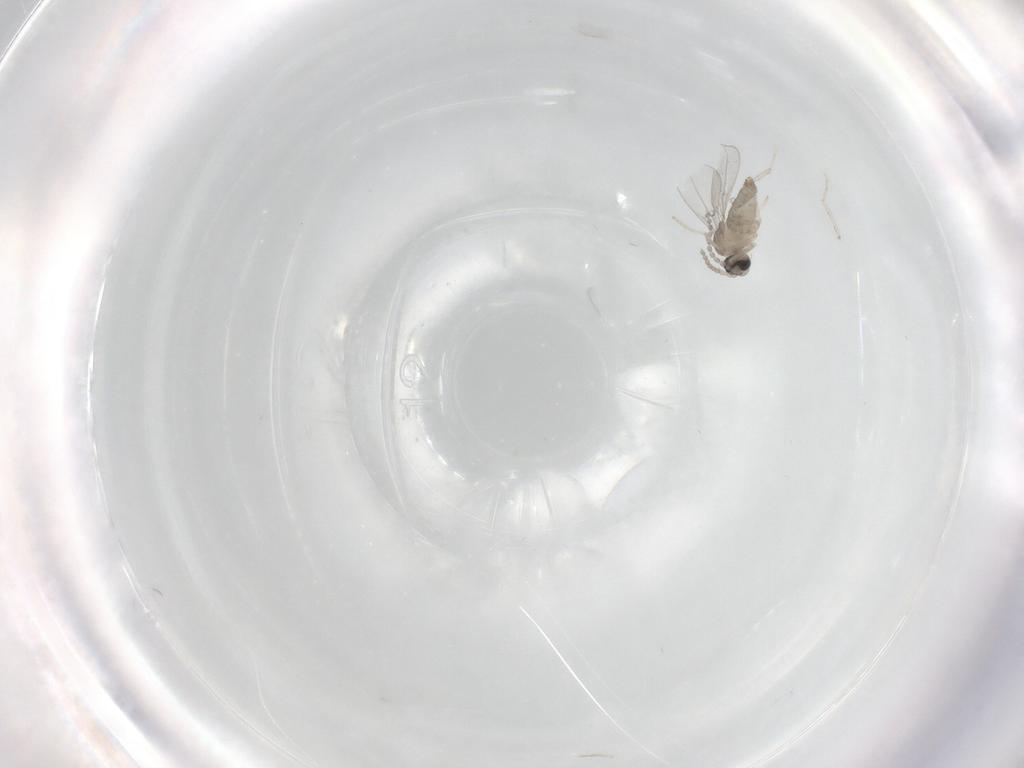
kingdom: Animalia
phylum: Arthropoda
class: Insecta
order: Diptera
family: Cecidomyiidae
